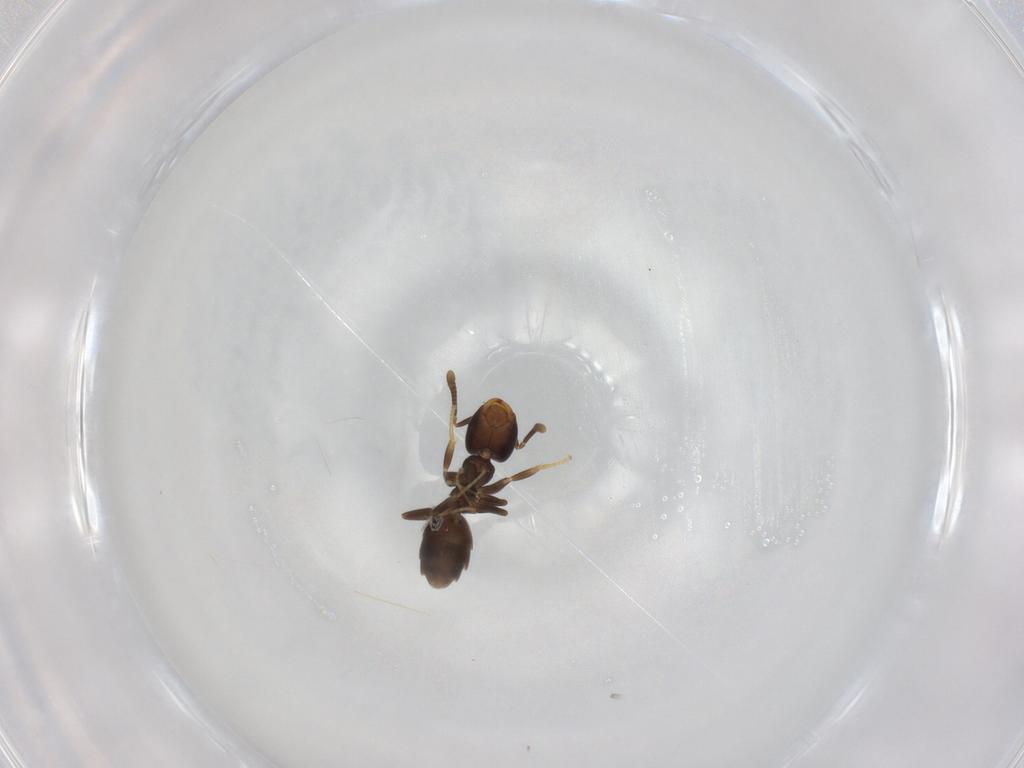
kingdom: Animalia
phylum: Arthropoda
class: Insecta
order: Hymenoptera
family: Formicidae
